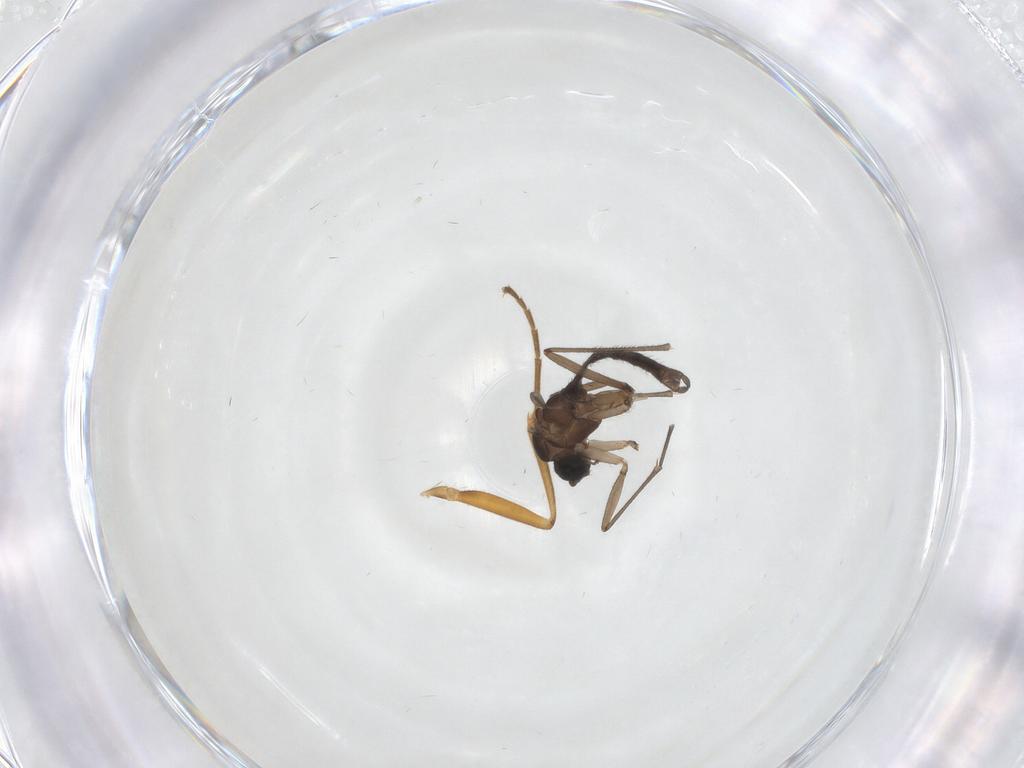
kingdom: Animalia
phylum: Arthropoda
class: Insecta
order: Diptera
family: Sciaridae
